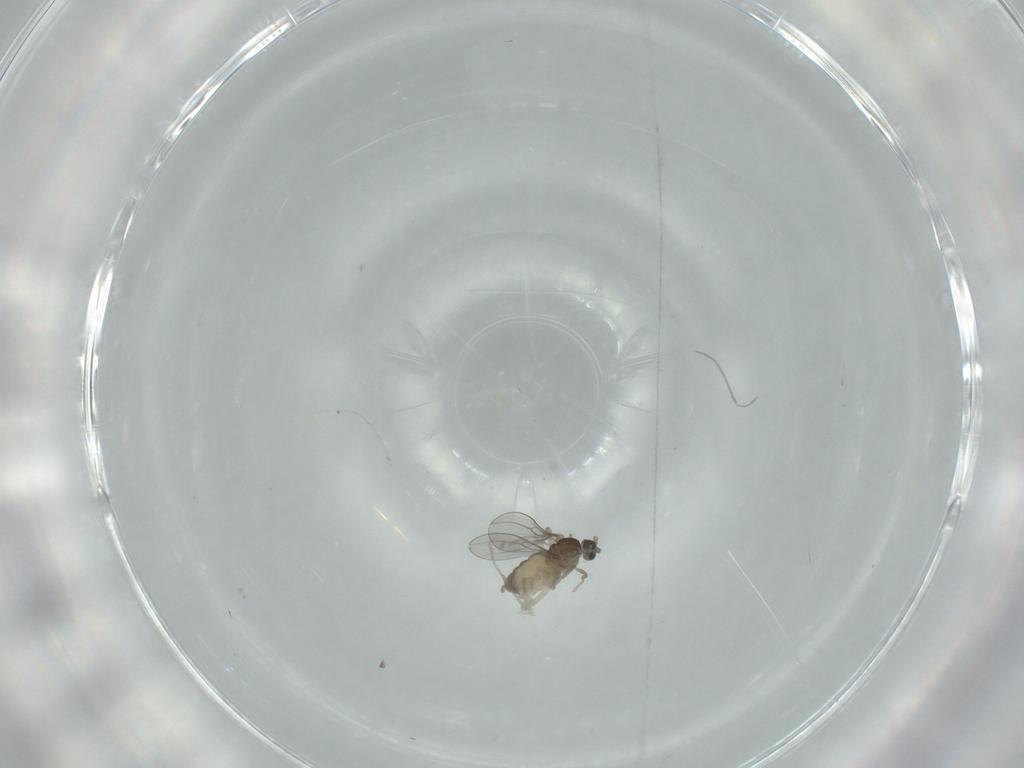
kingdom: Animalia
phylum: Arthropoda
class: Insecta
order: Diptera
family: Cecidomyiidae
